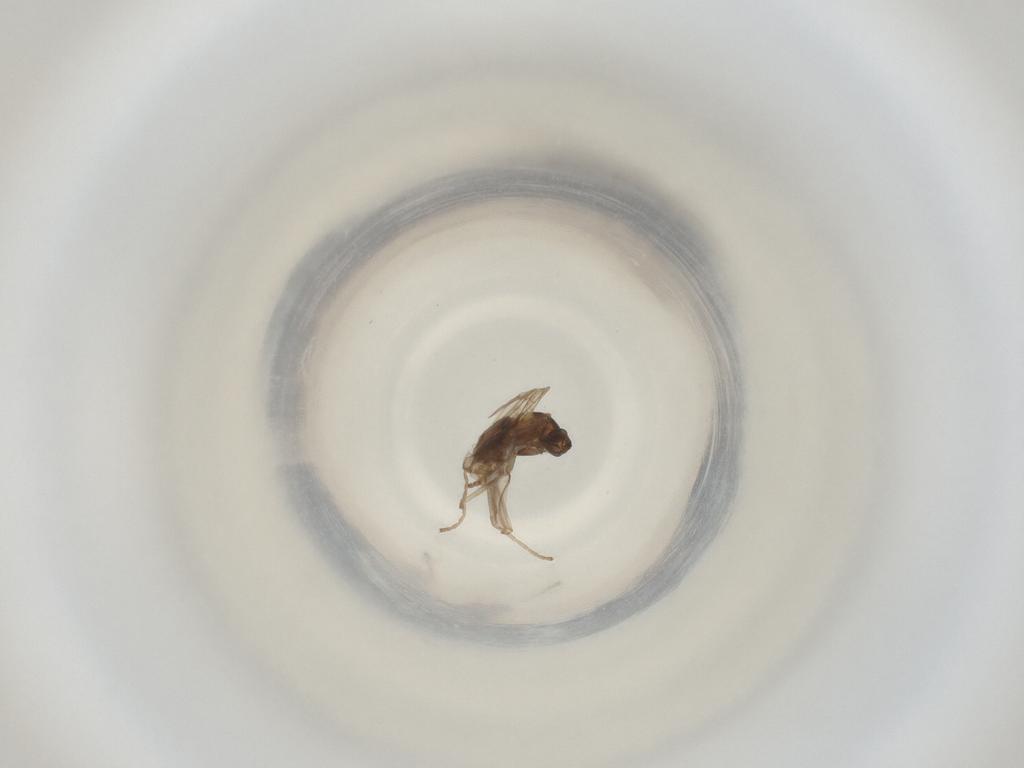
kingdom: Animalia
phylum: Arthropoda
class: Insecta
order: Diptera
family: Cecidomyiidae
